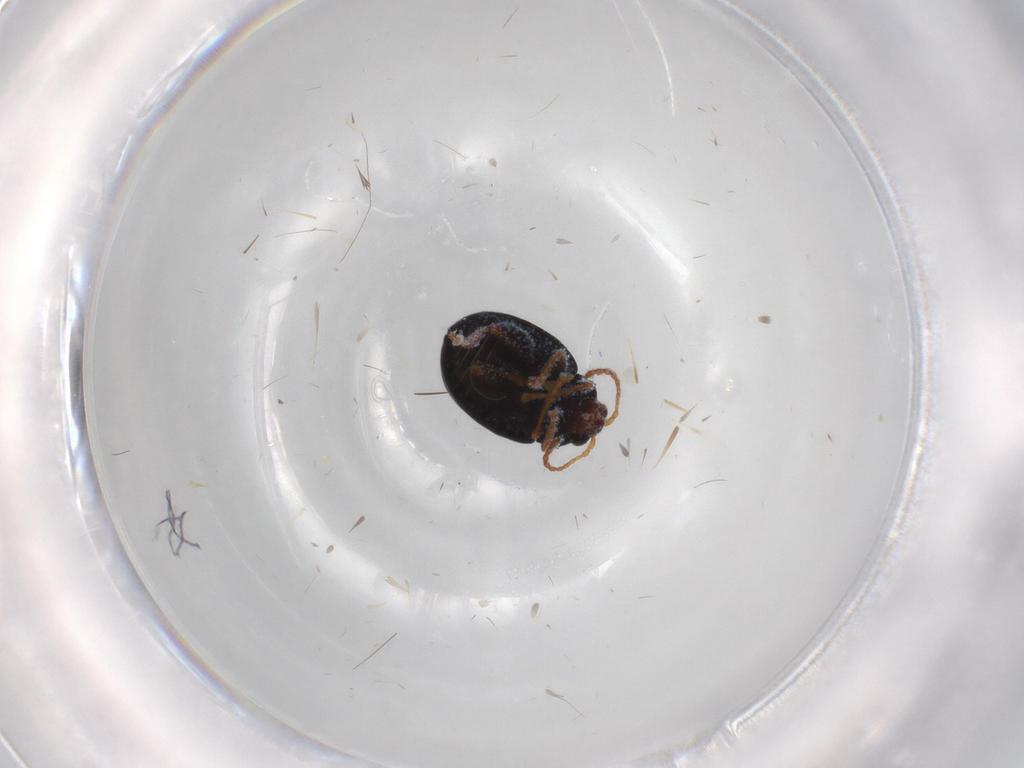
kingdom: Animalia
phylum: Arthropoda
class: Insecta
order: Coleoptera
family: Chrysomelidae
